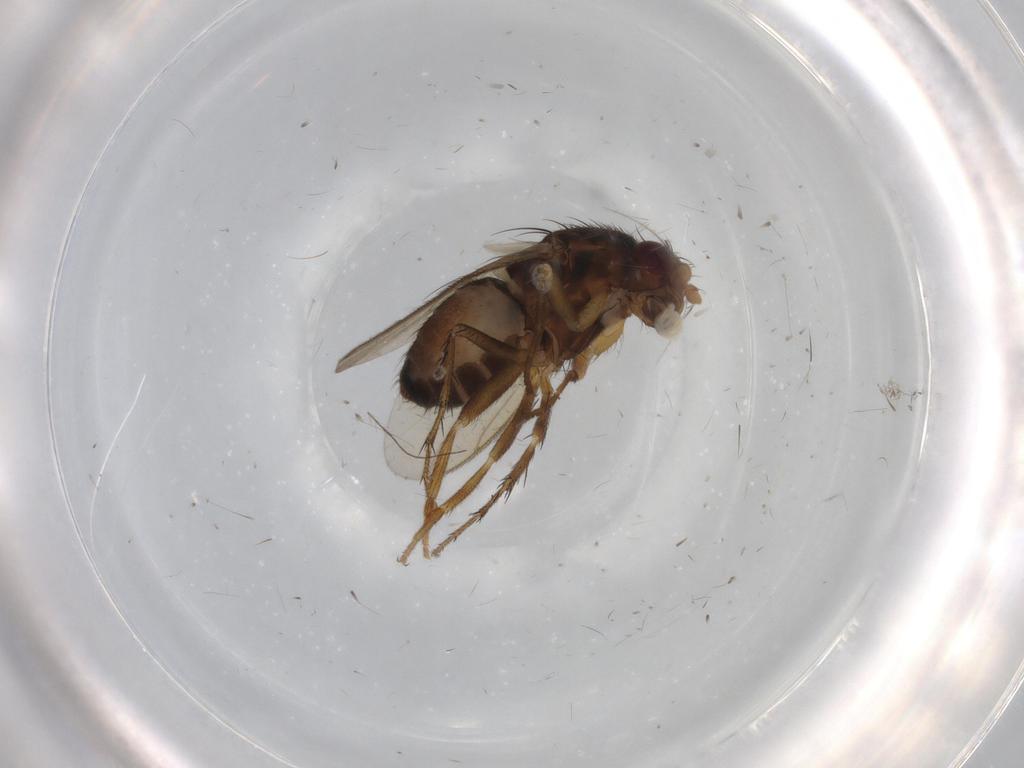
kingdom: Animalia
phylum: Arthropoda
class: Insecta
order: Diptera
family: Sphaeroceridae
